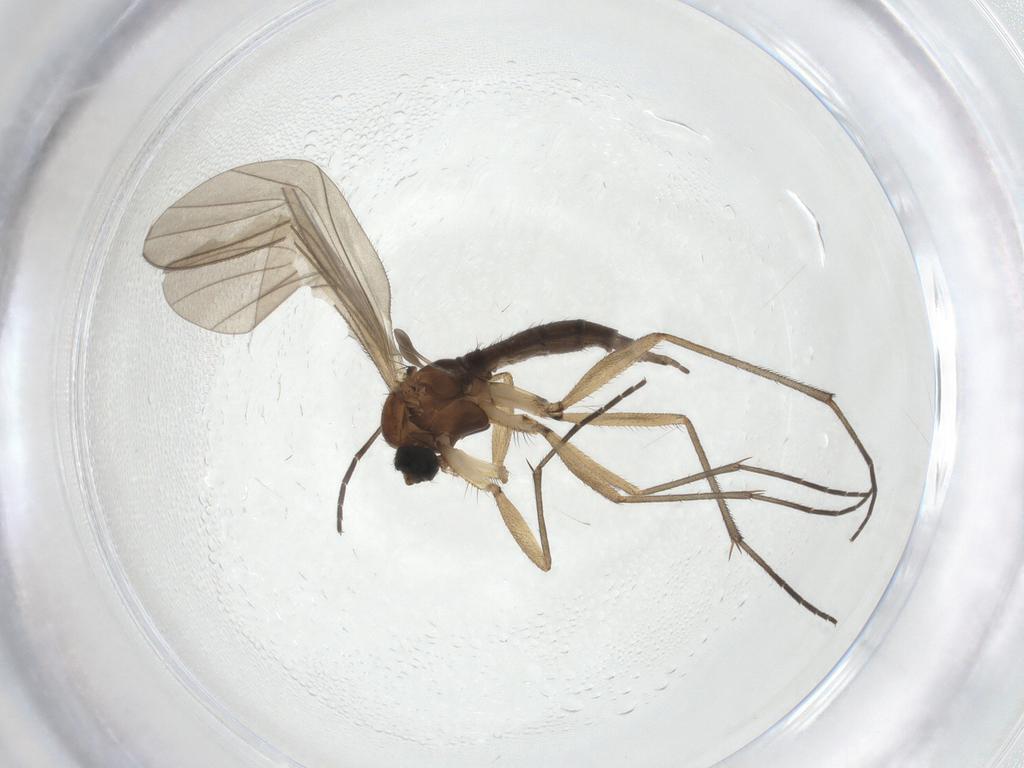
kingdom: Animalia
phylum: Arthropoda
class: Insecta
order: Diptera
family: Sciaridae
